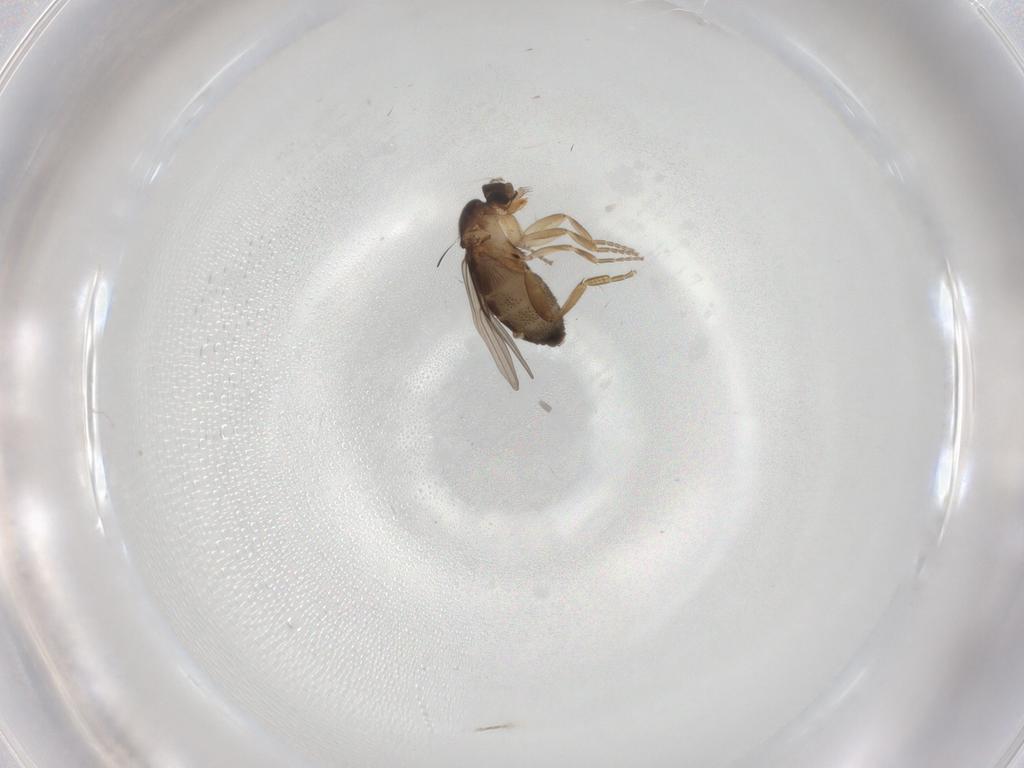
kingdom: Animalia
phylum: Arthropoda
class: Insecta
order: Diptera
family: Phoridae
